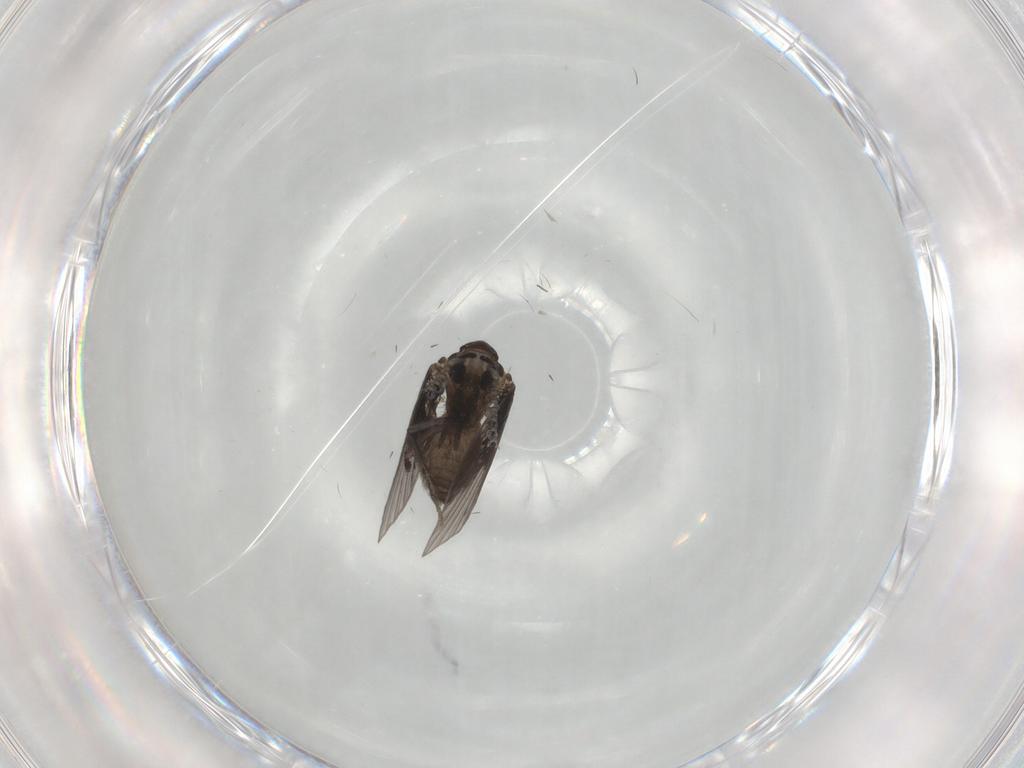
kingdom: Animalia
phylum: Arthropoda
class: Insecta
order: Diptera
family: Psychodidae
